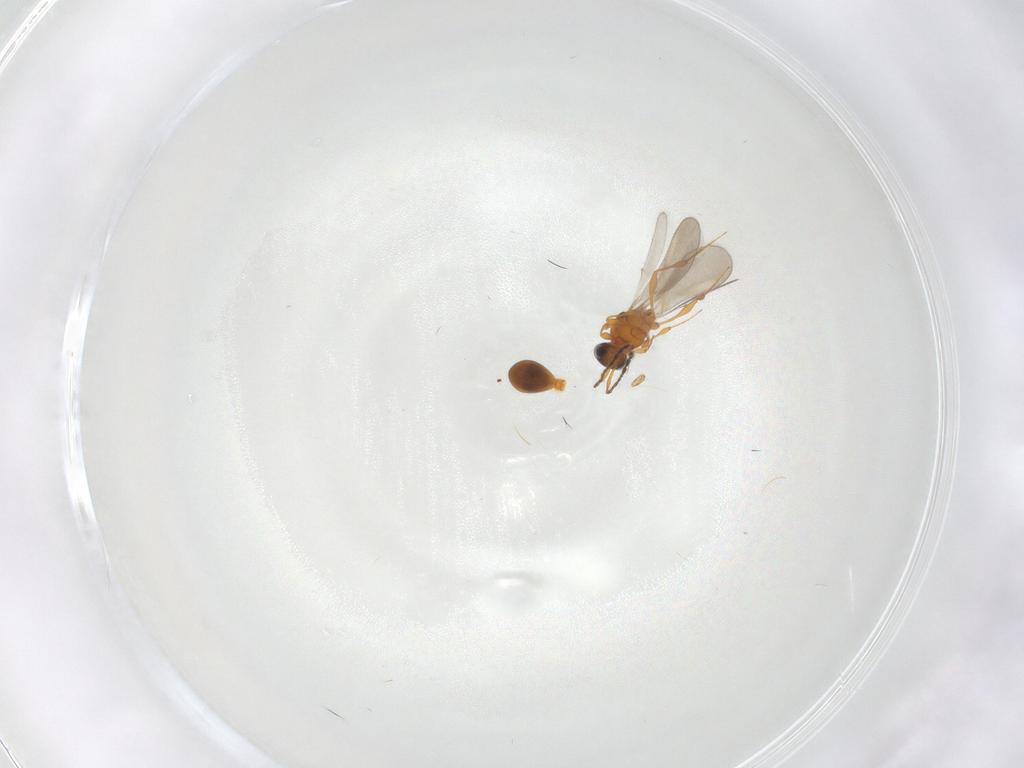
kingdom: Animalia
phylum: Arthropoda
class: Insecta
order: Hymenoptera
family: Platygastridae
